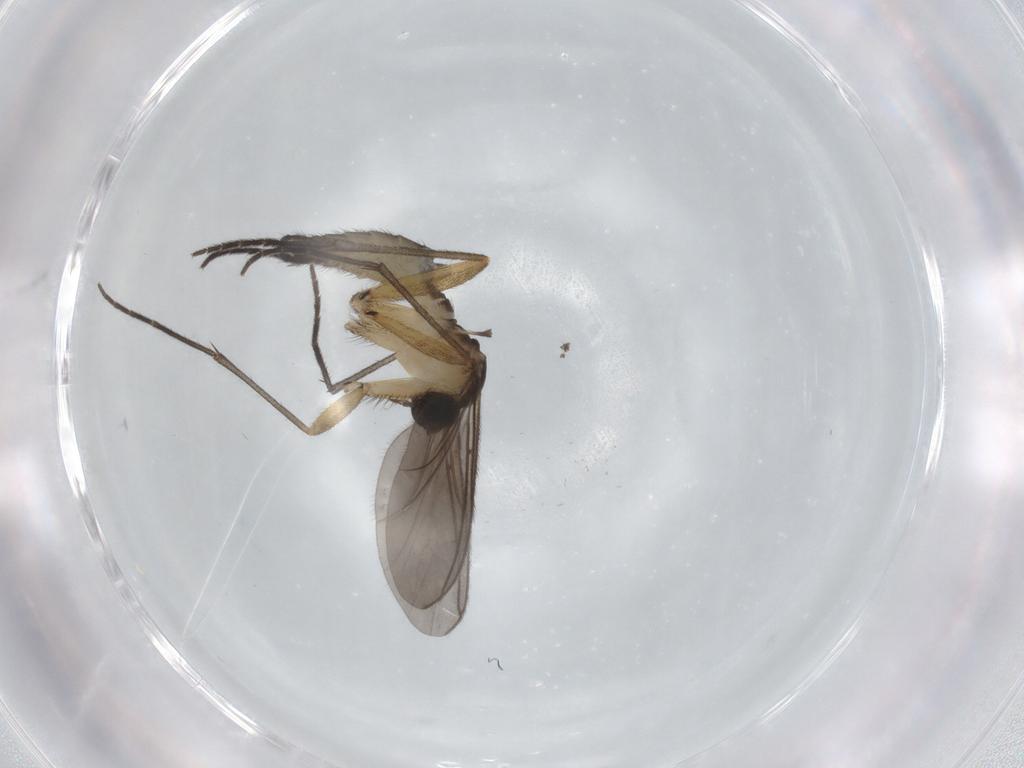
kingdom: Animalia
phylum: Arthropoda
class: Insecta
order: Diptera
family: Sciaridae
